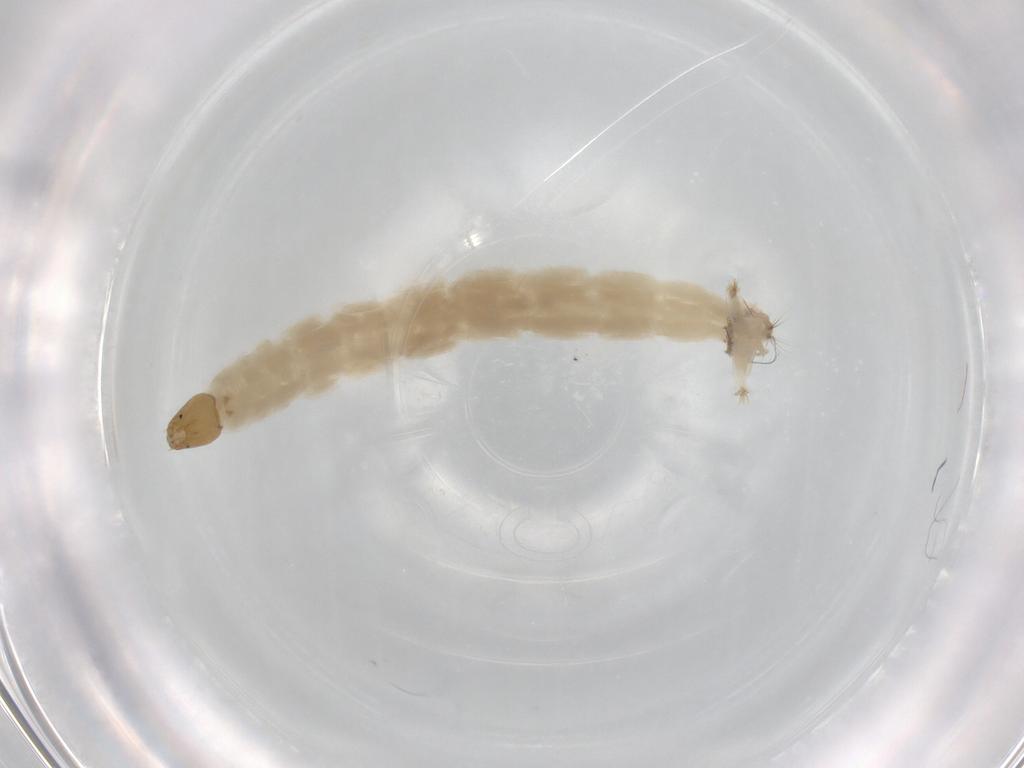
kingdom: Animalia
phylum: Arthropoda
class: Insecta
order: Diptera
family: Chironomidae
